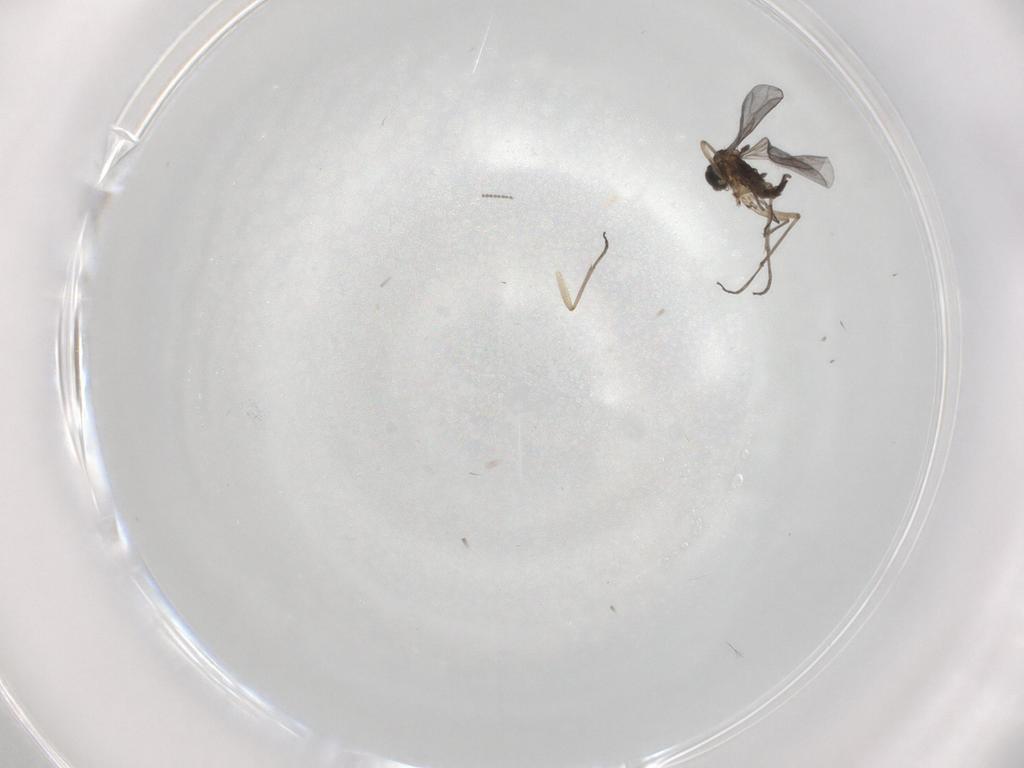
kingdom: Animalia
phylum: Arthropoda
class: Insecta
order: Diptera
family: Sciaridae
